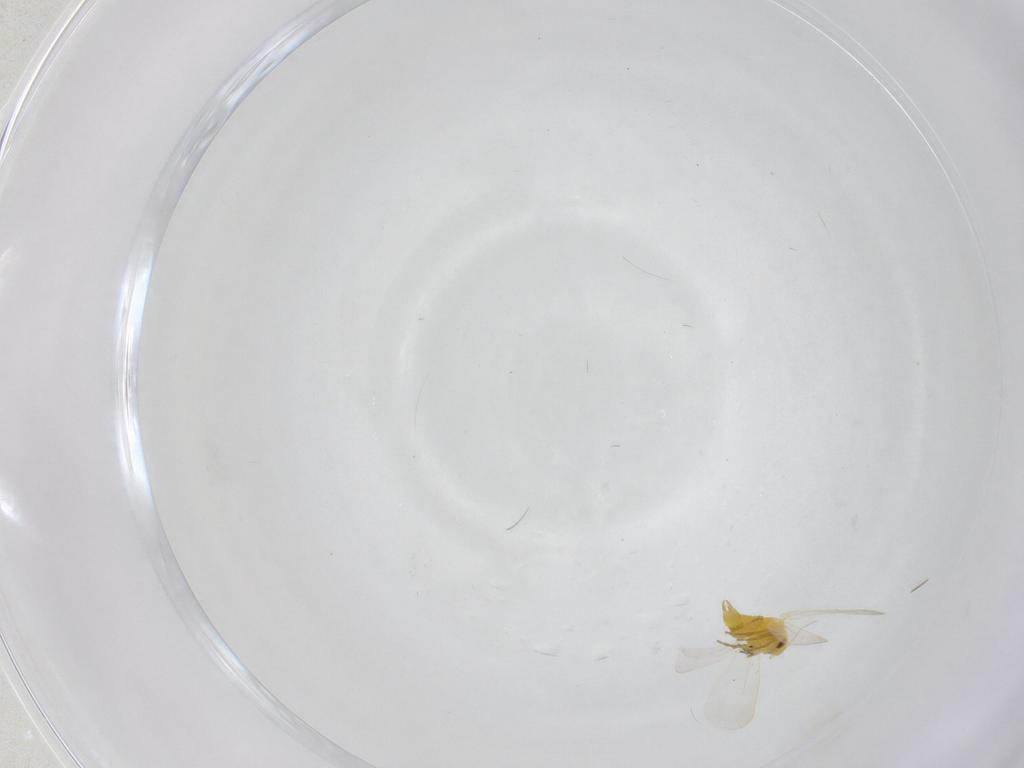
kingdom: Animalia
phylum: Arthropoda
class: Insecta
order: Hemiptera
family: Aleyrodidae
